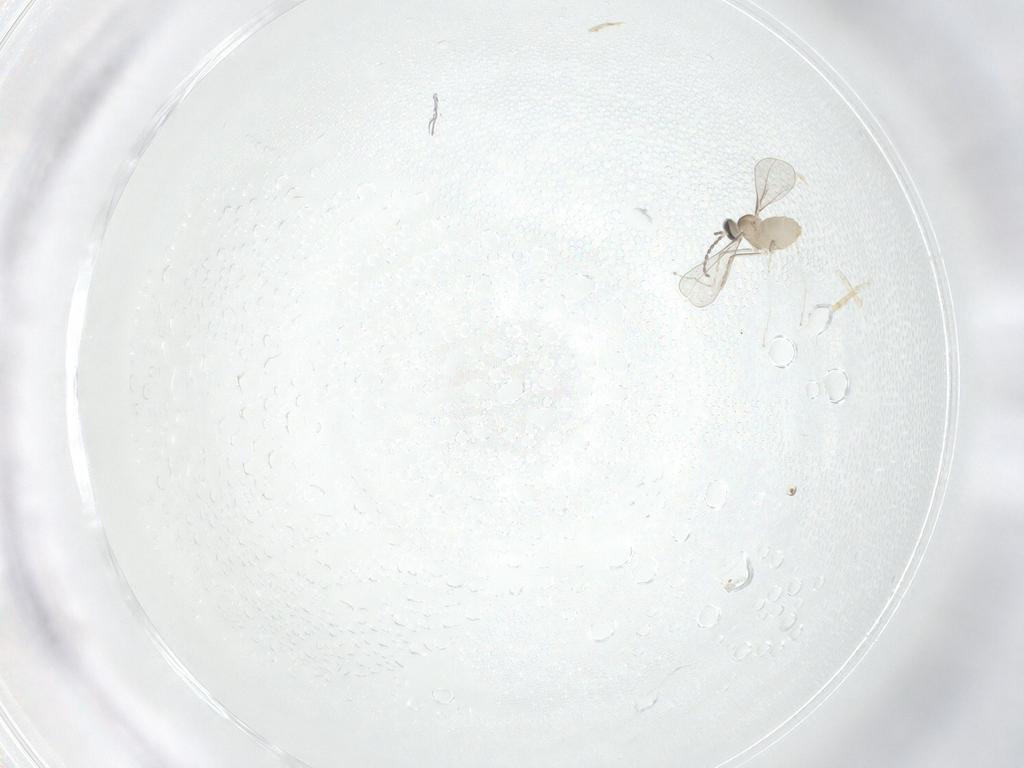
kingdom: Animalia
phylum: Arthropoda
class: Insecta
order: Diptera
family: Cecidomyiidae
